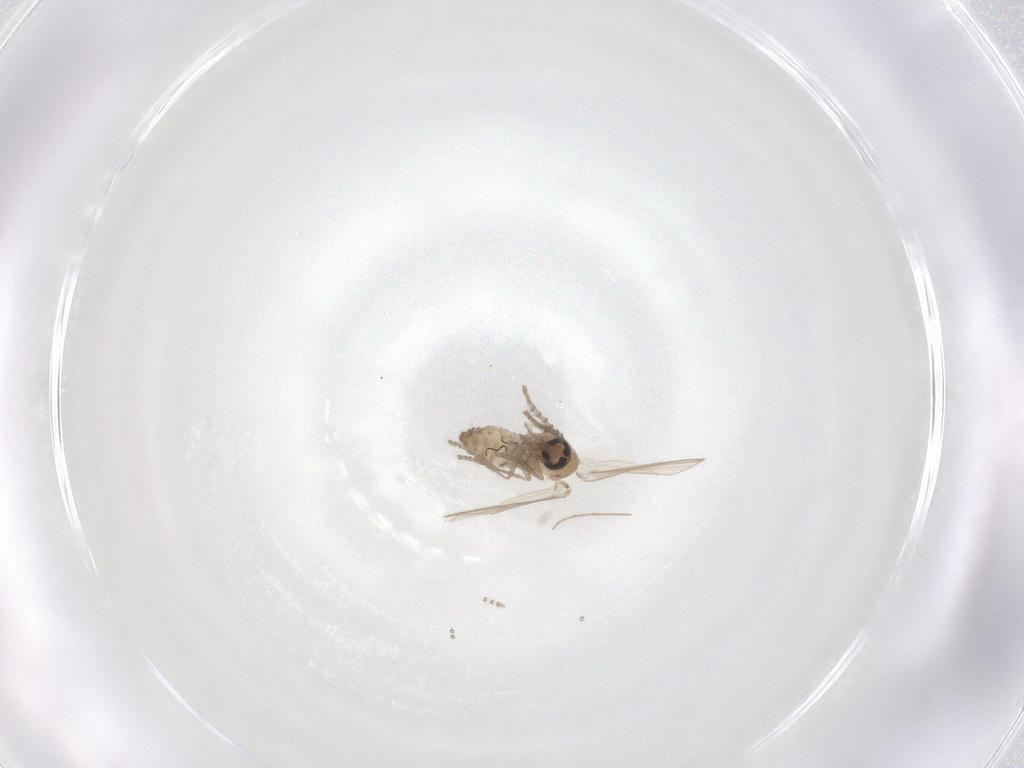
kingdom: Animalia
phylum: Arthropoda
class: Insecta
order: Diptera
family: Psychodidae
